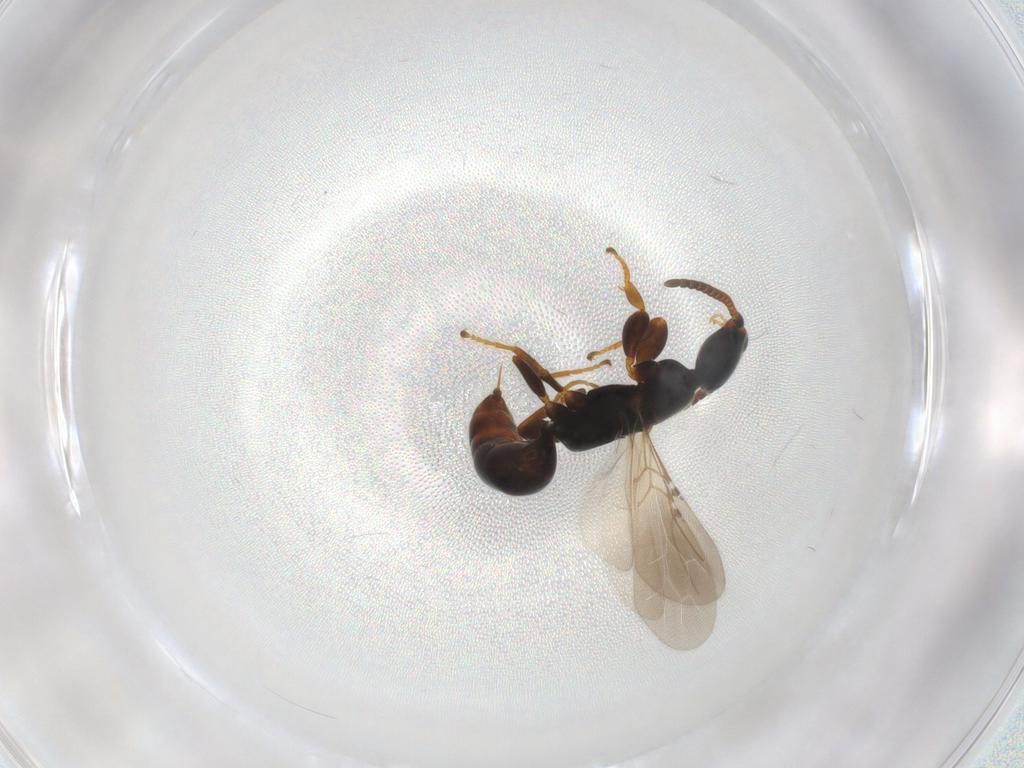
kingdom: Animalia
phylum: Arthropoda
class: Insecta
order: Hymenoptera
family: Bethylidae
